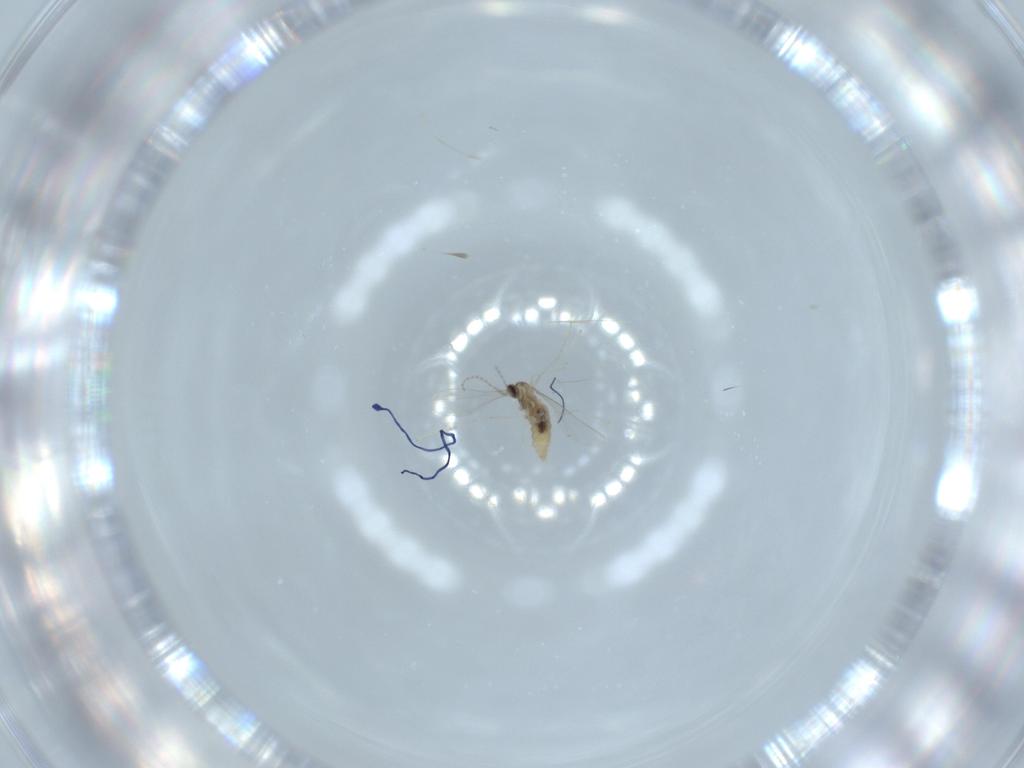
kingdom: Animalia
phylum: Arthropoda
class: Insecta
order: Diptera
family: Cecidomyiidae
